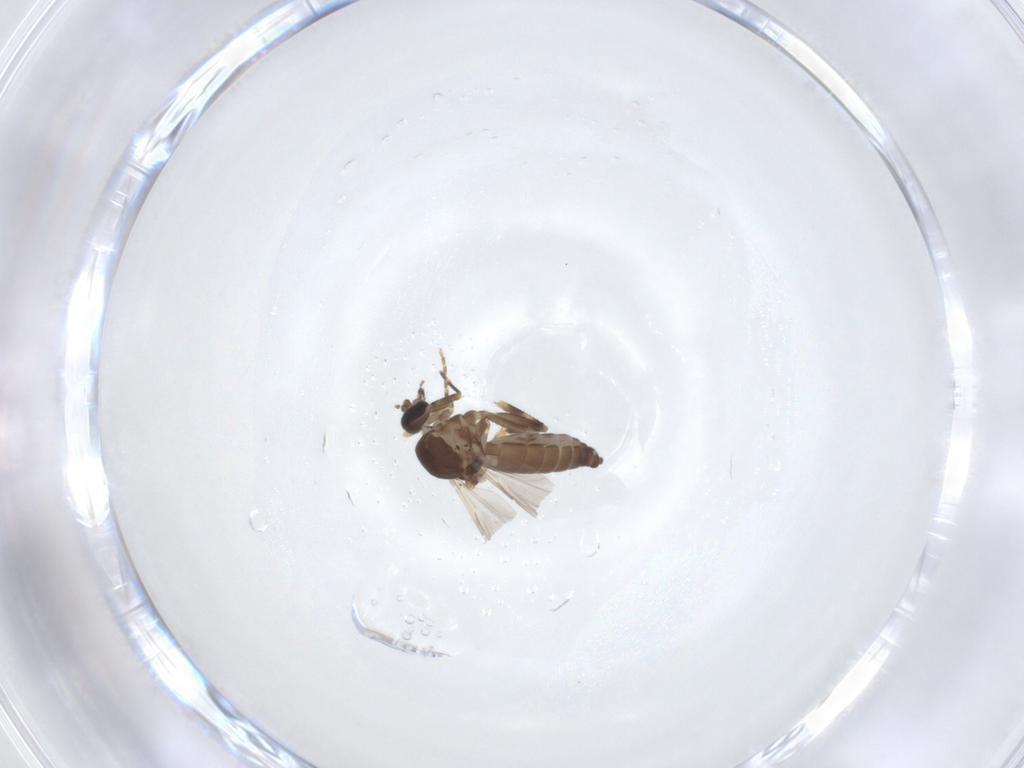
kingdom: Animalia
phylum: Arthropoda
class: Insecta
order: Diptera
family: Ceratopogonidae
